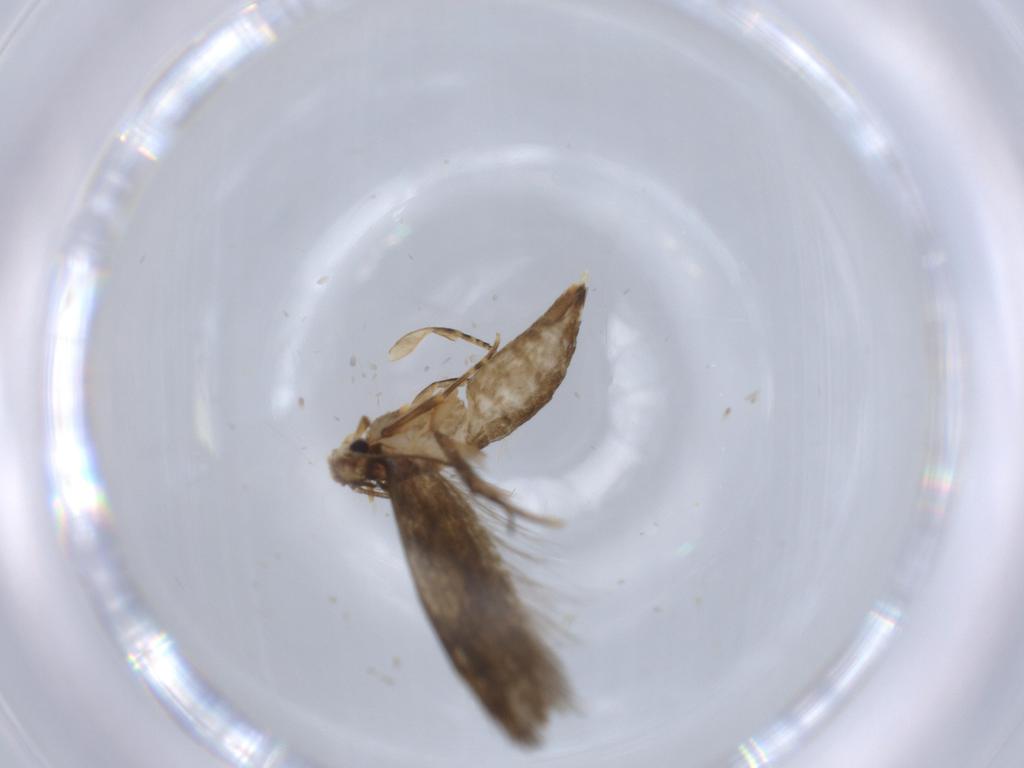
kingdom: Animalia
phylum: Arthropoda
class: Insecta
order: Lepidoptera
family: Tineidae
